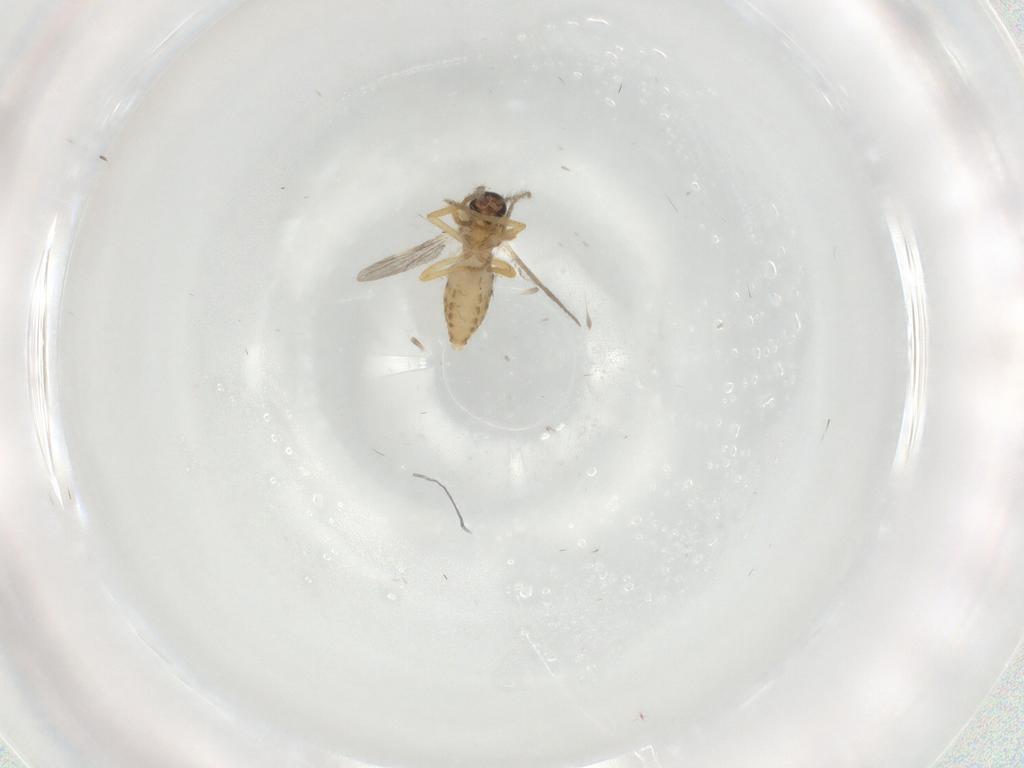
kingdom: Animalia
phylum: Arthropoda
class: Insecta
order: Diptera
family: Ceratopogonidae
